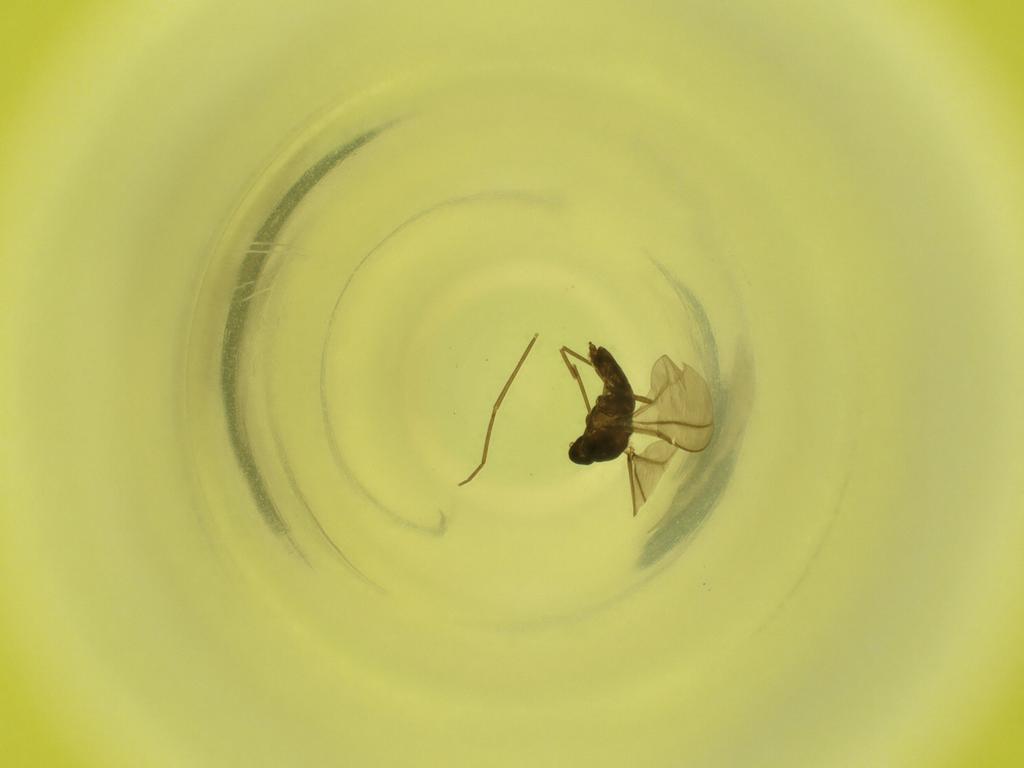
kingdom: Animalia
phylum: Arthropoda
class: Insecta
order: Diptera
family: Cecidomyiidae
